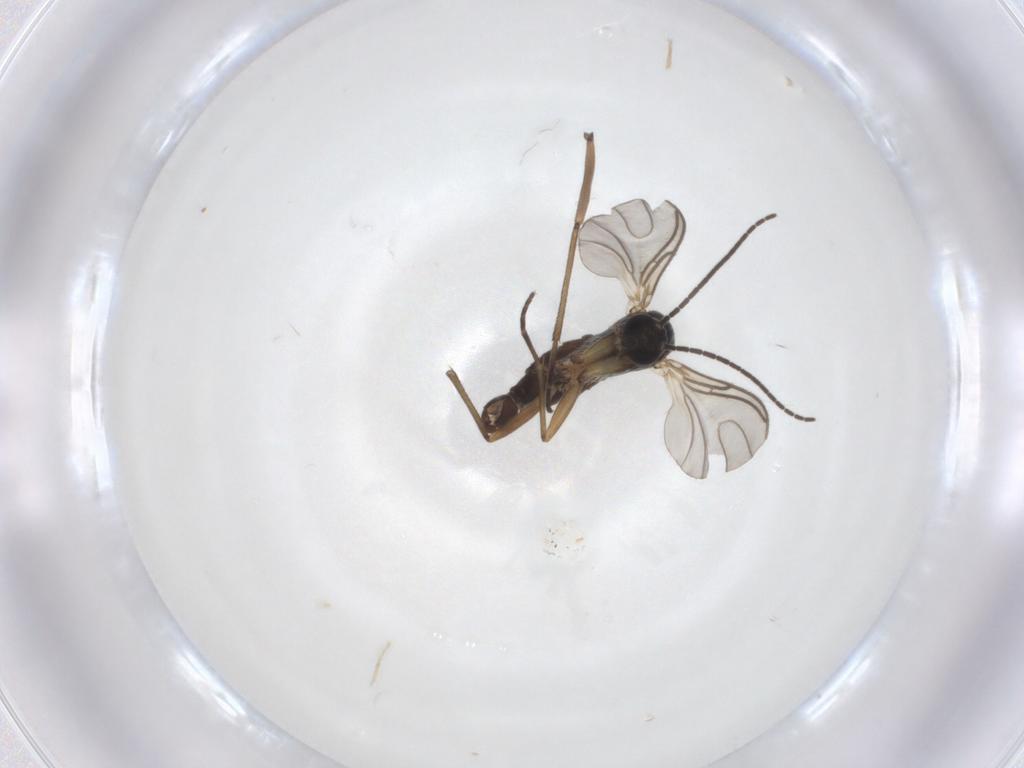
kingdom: Animalia
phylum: Arthropoda
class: Insecta
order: Diptera
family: Sciaridae
